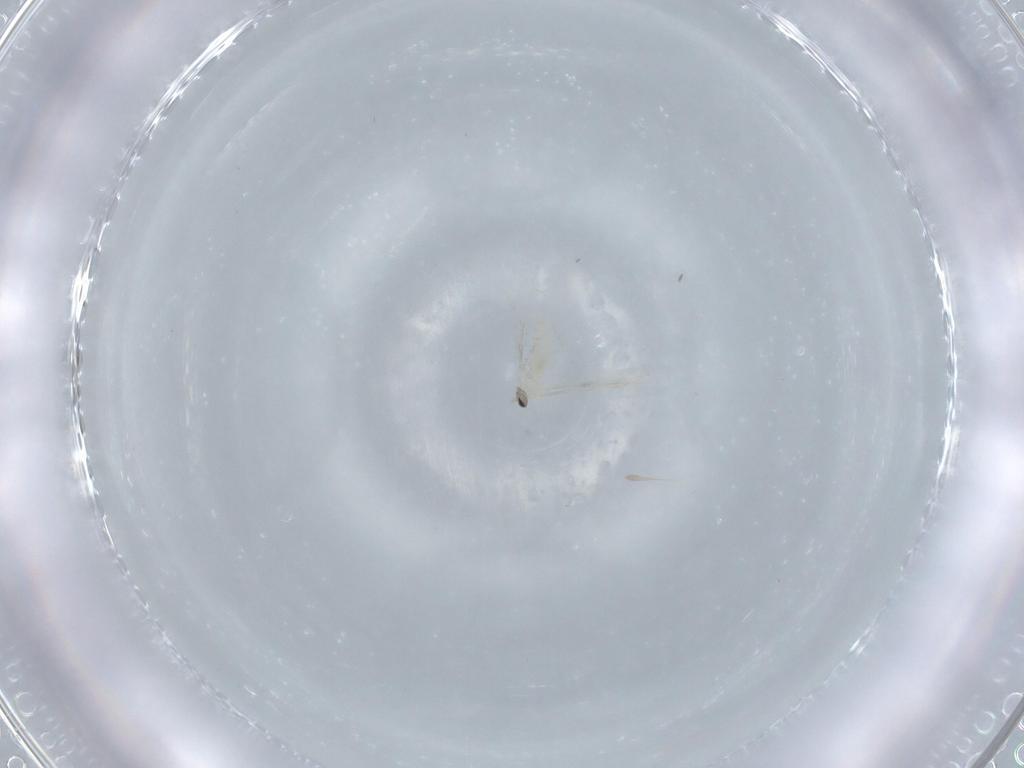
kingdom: Animalia
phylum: Arthropoda
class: Insecta
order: Diptera
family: Cecidomyiidae
